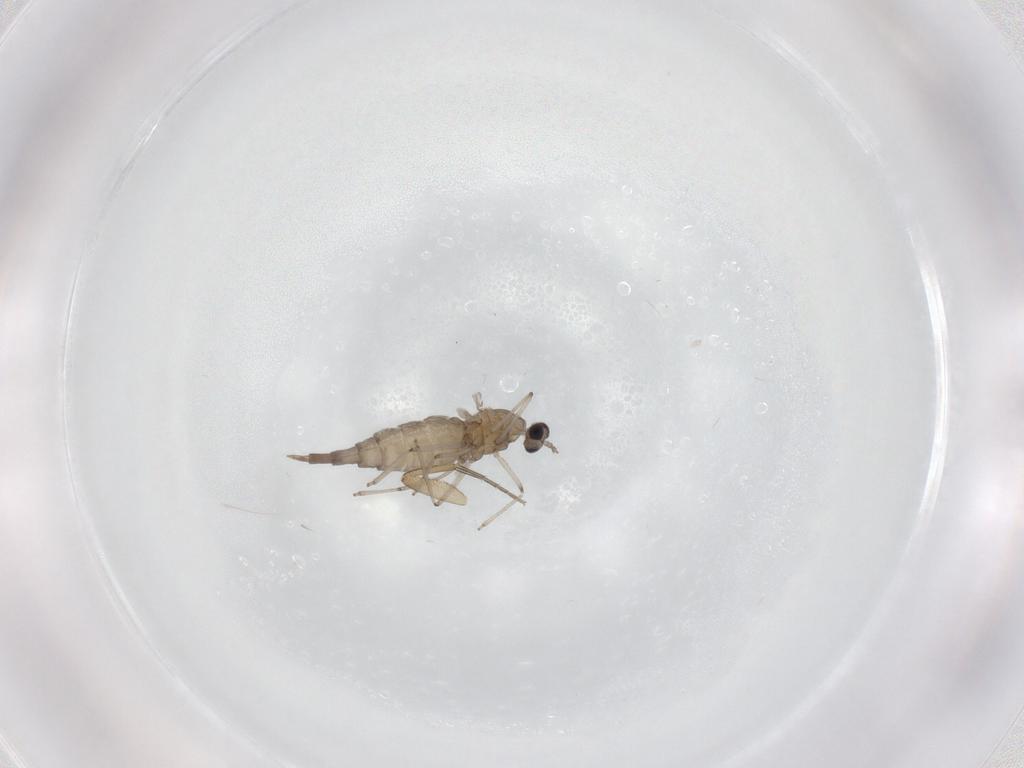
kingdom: Animalia
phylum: Arthropoda
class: Insecta
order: Diptera
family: Cecidomyiidae
